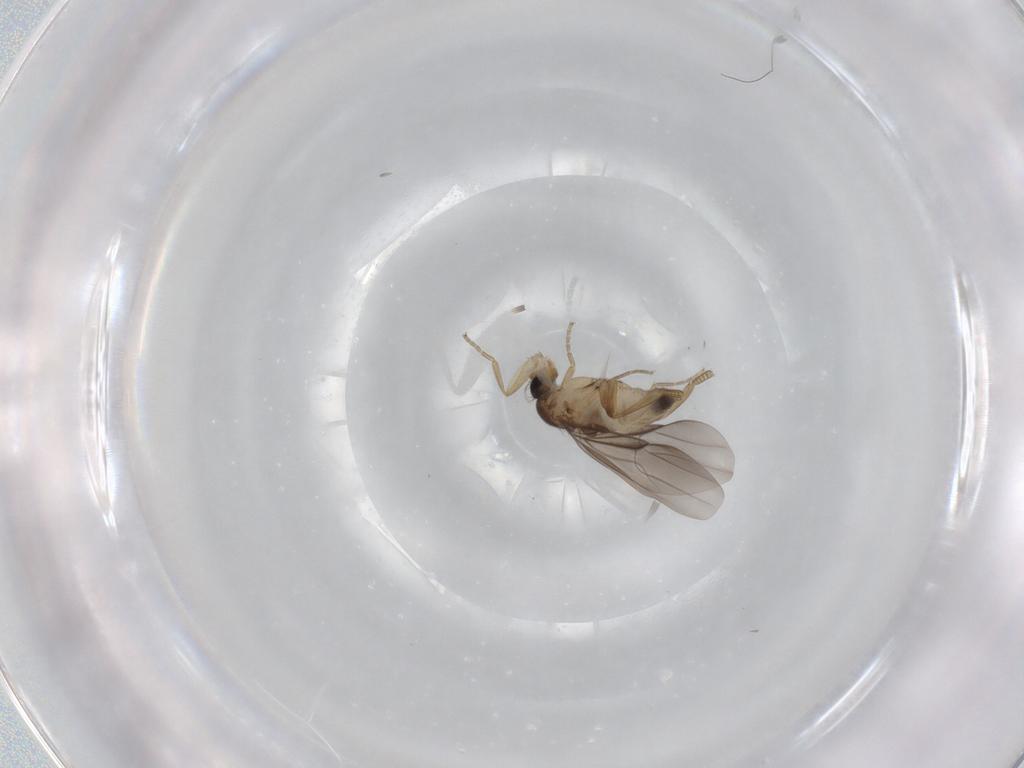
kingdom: Animalia
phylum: Arthropoda
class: Insecta
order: Diptera
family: Phoridae
